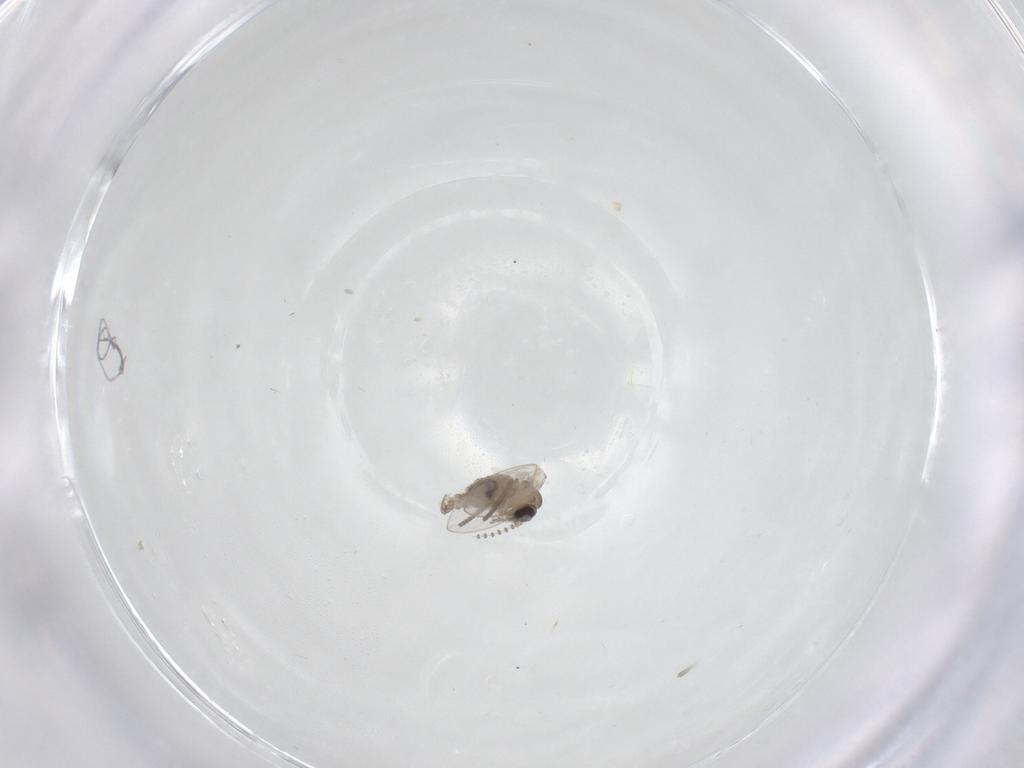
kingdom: Animalia
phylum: Arthropoda
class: Insecta
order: Diptera
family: Psychodidae
